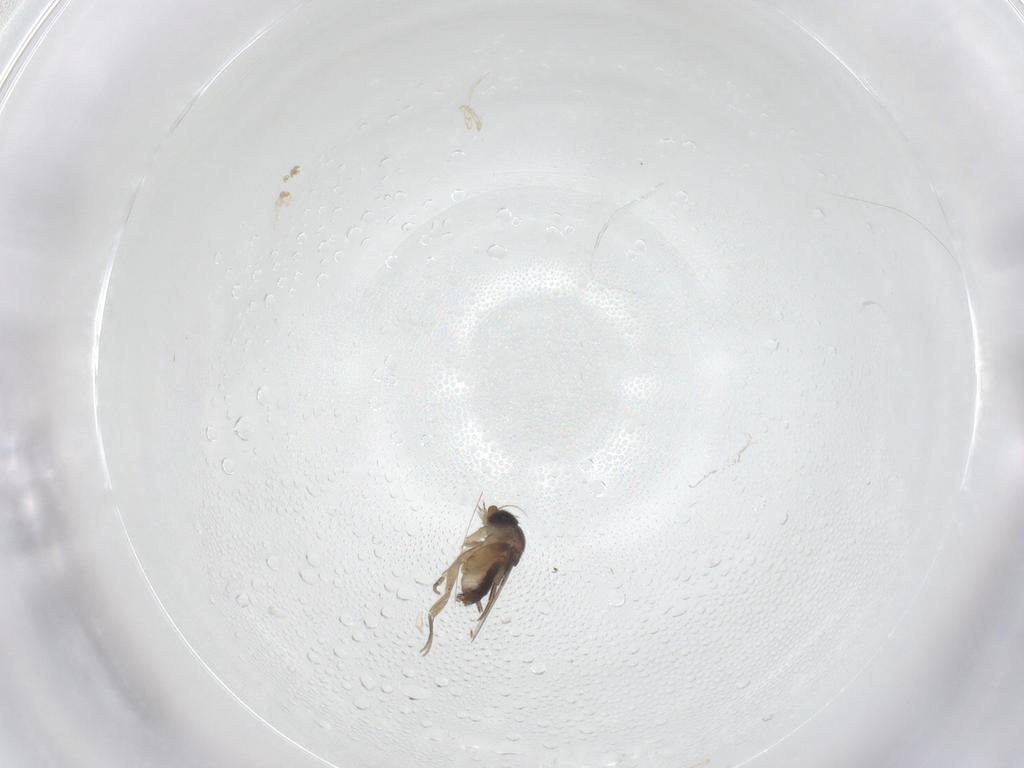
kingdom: Animalia
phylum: Arthropoda
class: Insecta
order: Diptera
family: Phoridae
